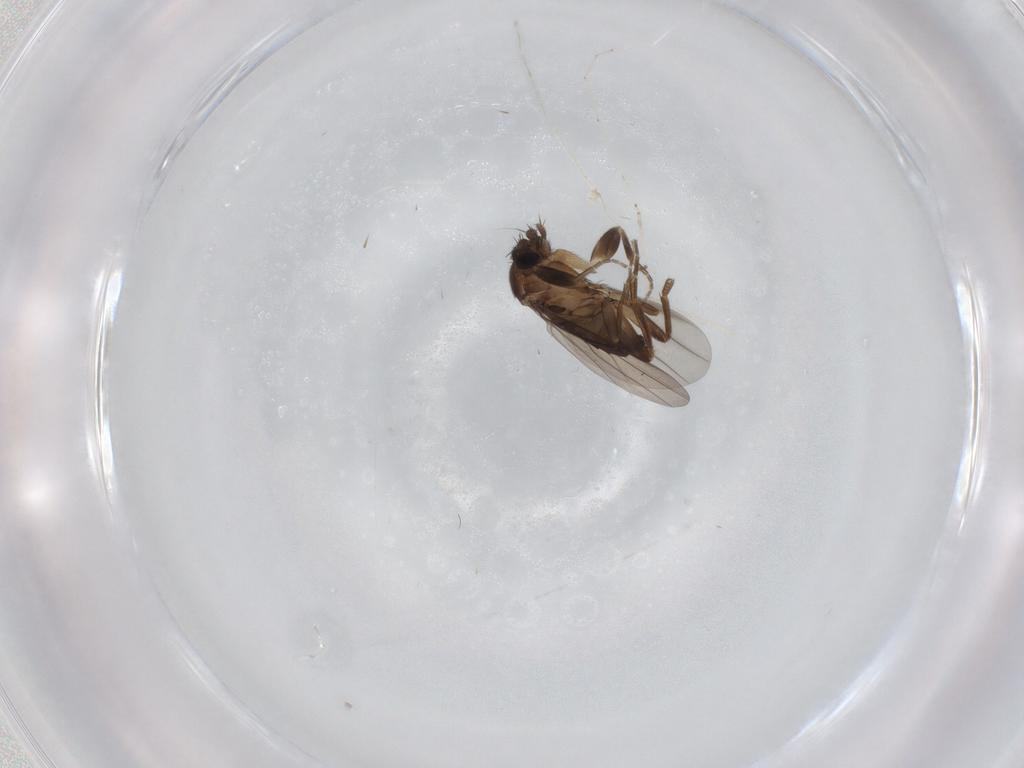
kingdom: Animalia
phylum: Arthropoda
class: Insecta
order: Diptera
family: Cecidomyiidae
